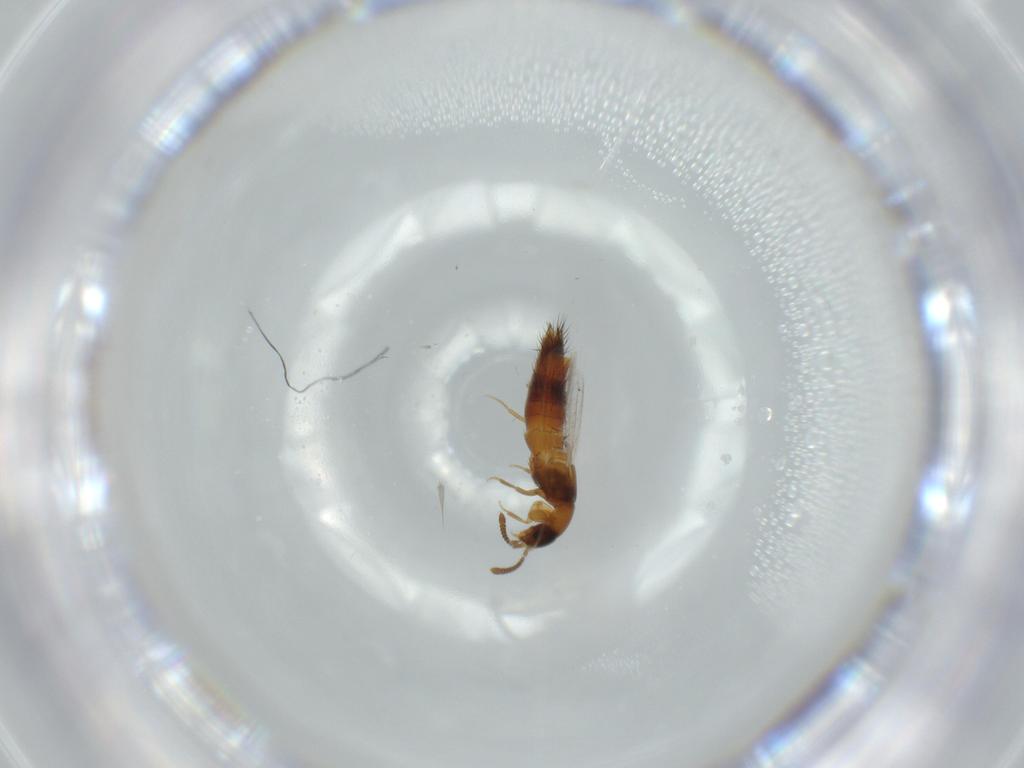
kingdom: Animalia
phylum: Arthropoda
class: Insecta
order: Coleoptera
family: Staphylinidae
